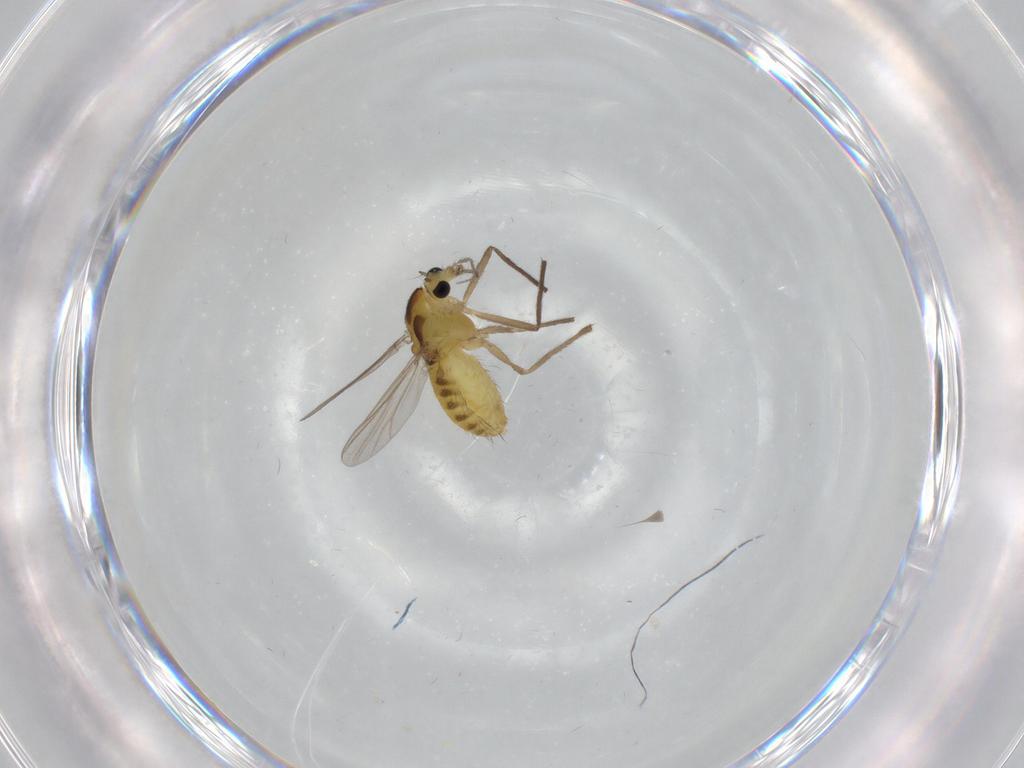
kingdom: Animalia
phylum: Arthropoda
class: Insecta
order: Diptera
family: Chironomidae
